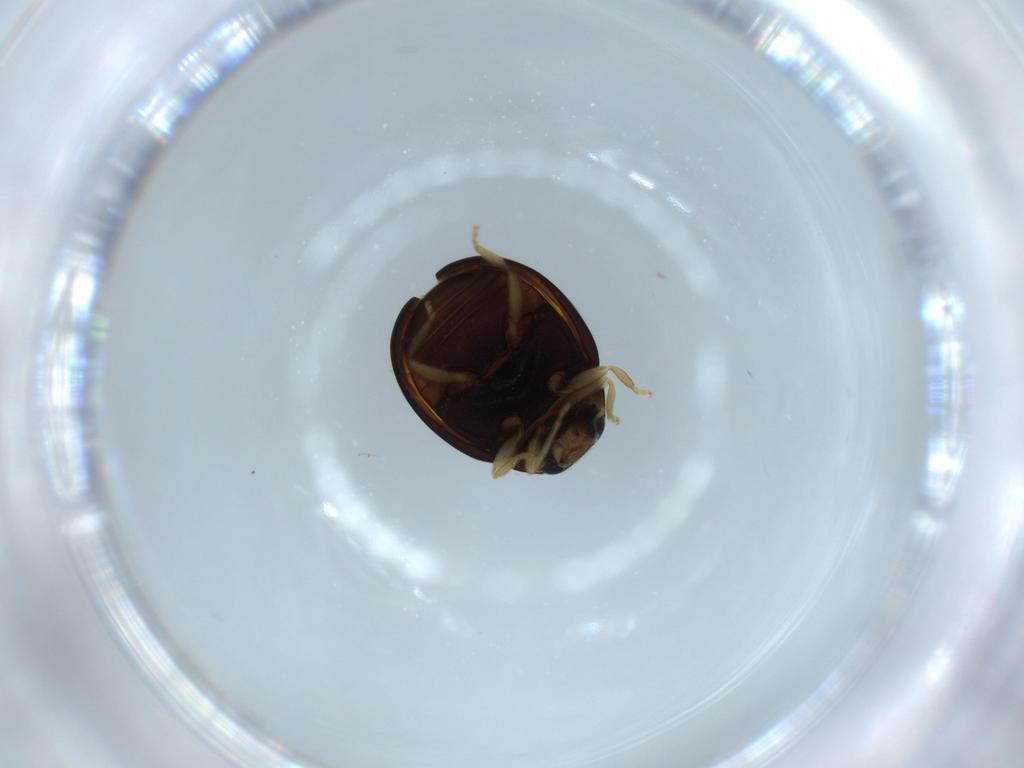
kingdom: Animalia
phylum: Arthropoda
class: Insecta
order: Coleoptera
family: Coccinellidae
